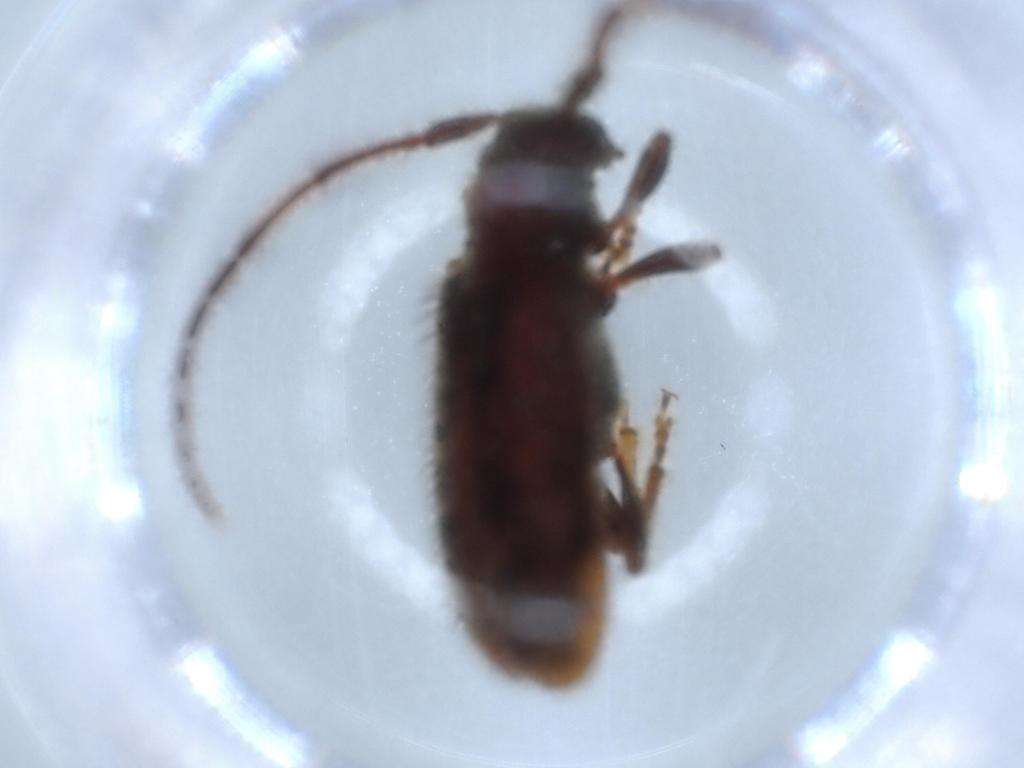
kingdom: Animalia
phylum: Arthropoda
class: Insecta
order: Coleoptera
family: Cerambycidae
